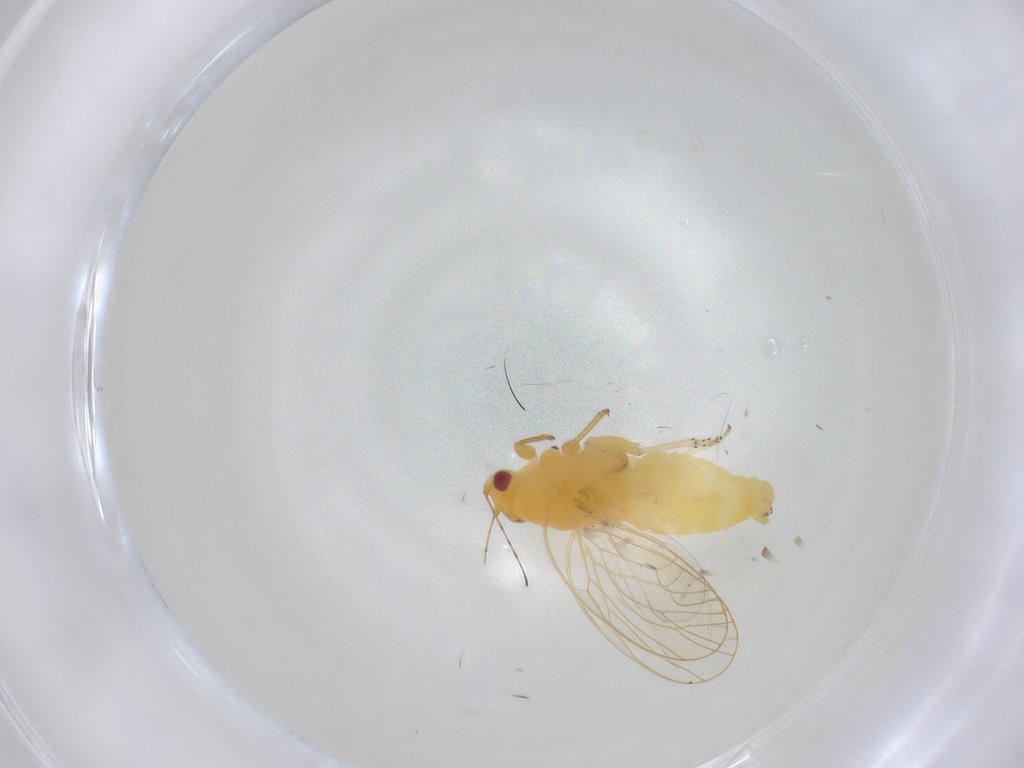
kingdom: Animalia
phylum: Arthropoda
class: Insecta
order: Hemiptera
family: Psyllidae
